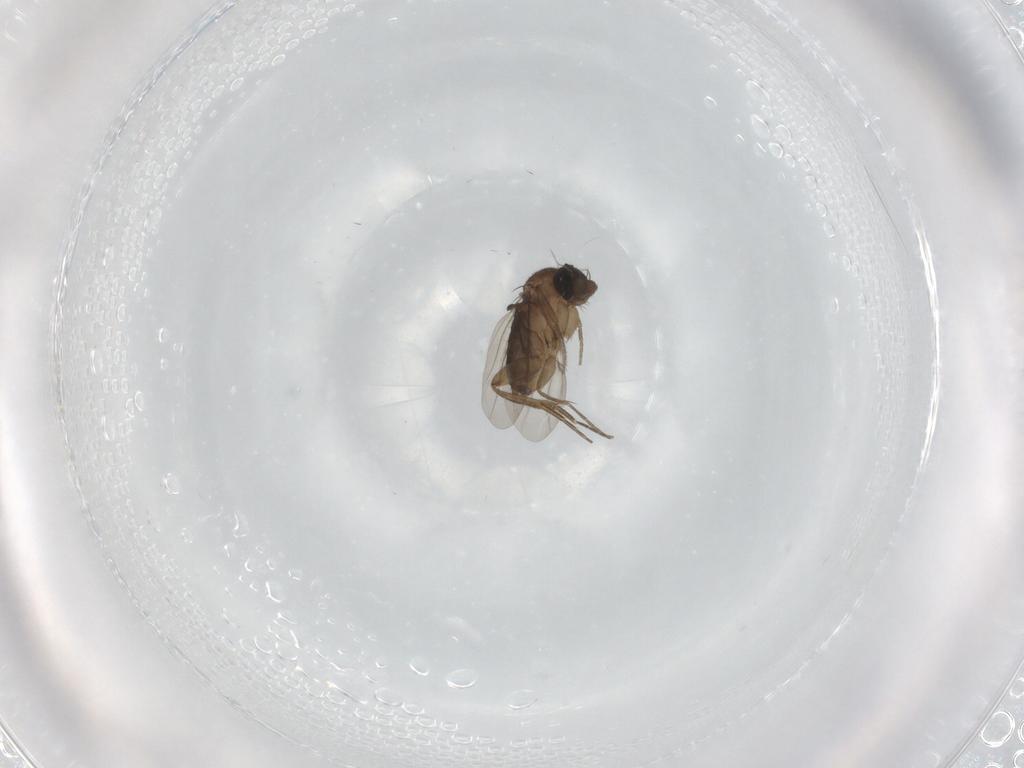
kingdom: Animalia
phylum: Arthropoda
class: Insecta
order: Diptera
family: Phoridae
